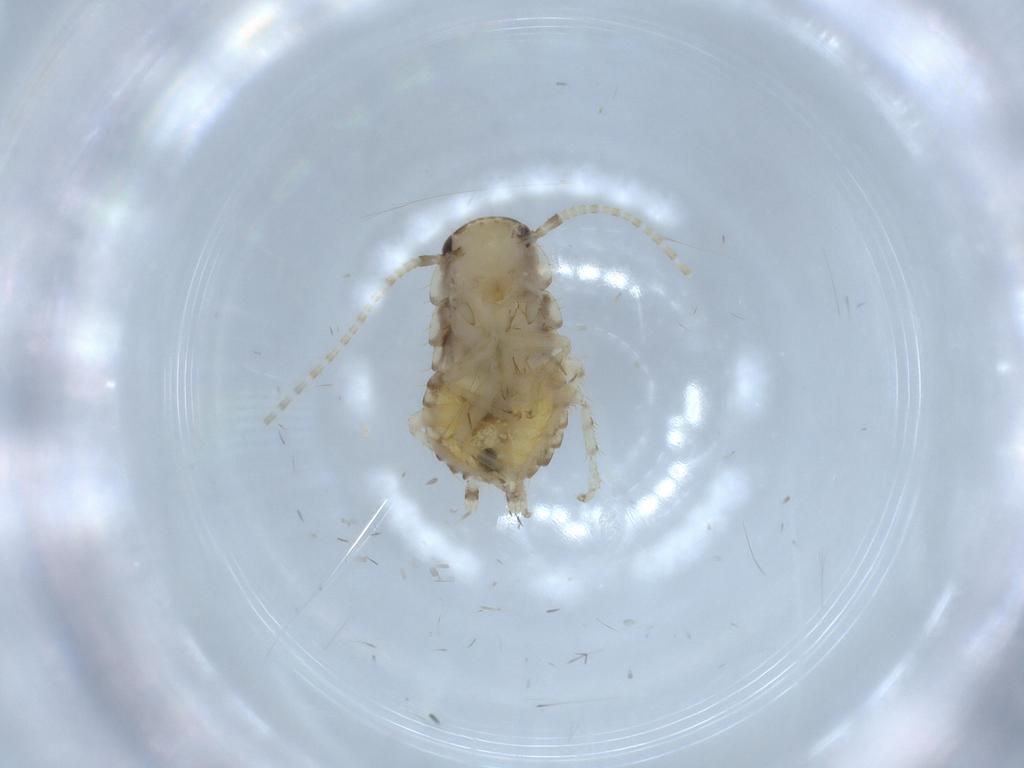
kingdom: Animalia
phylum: Arthropoda
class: Insecta
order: Blattodea
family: Ectobiidae
